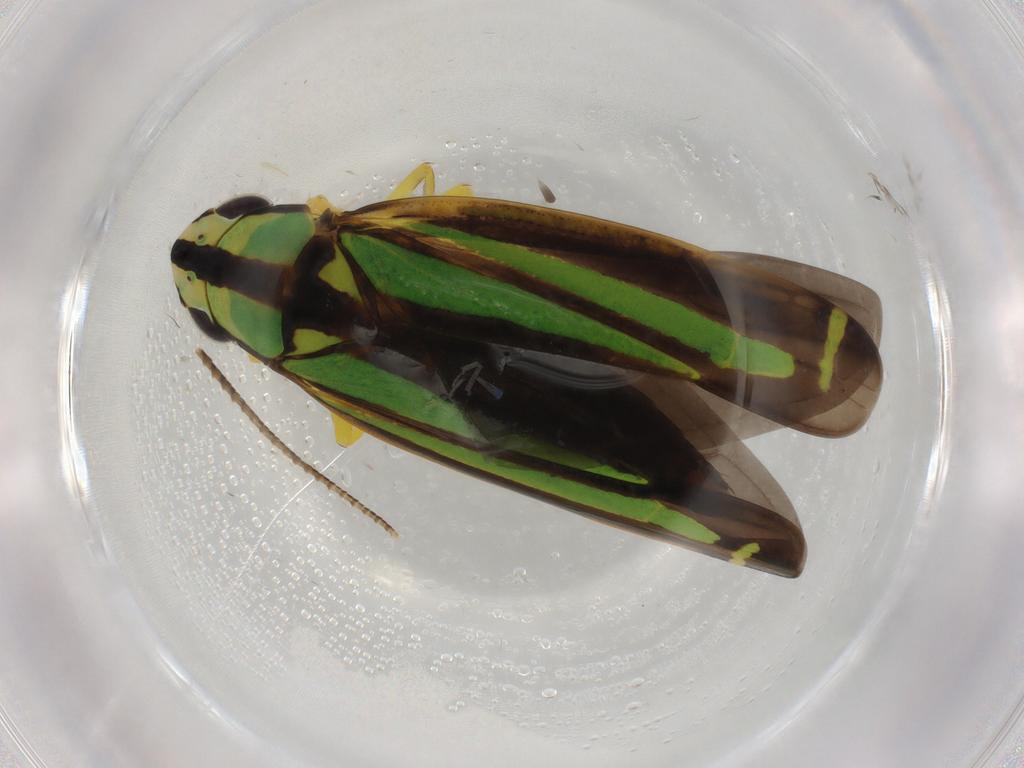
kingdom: Animalia
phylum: Arthropoda
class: Insecta
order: Hemiptera
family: Cicadellidae
